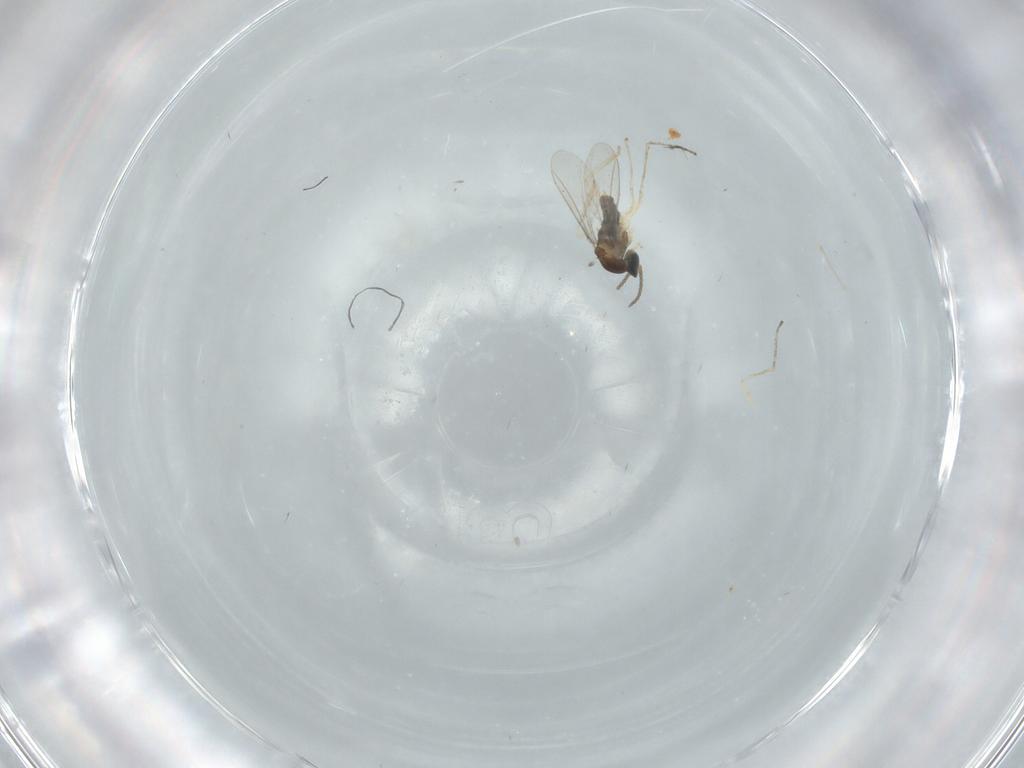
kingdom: Animalia
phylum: Arthropoda
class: Insecta
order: Diptera
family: Cecidomyiidae
